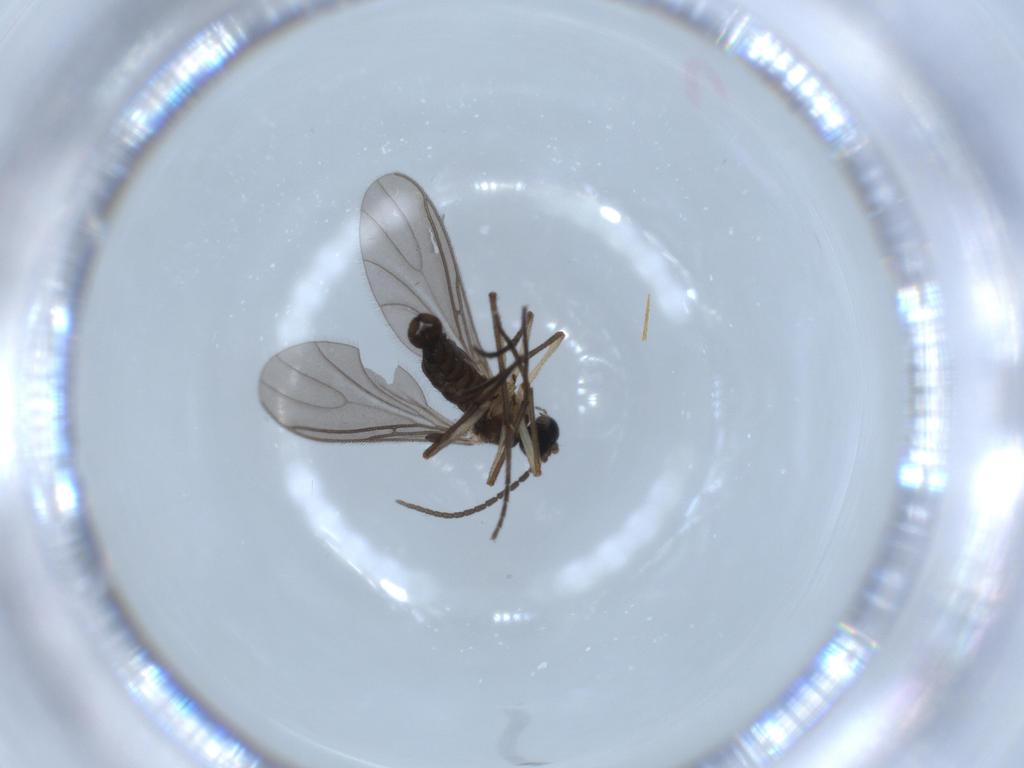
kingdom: Animalia
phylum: Arthropoda
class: Insecta
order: Diptera
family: Sciaridae
